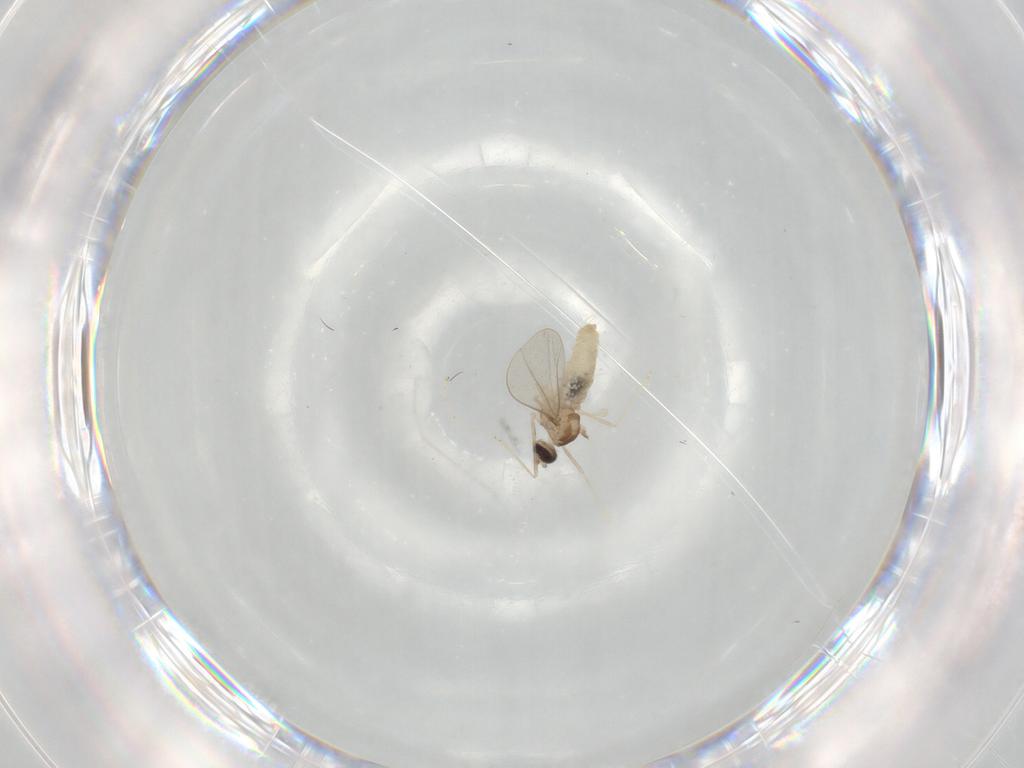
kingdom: Animalia
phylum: Arthropoda
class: Insecta
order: Diptera
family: Cecidomyiidae
